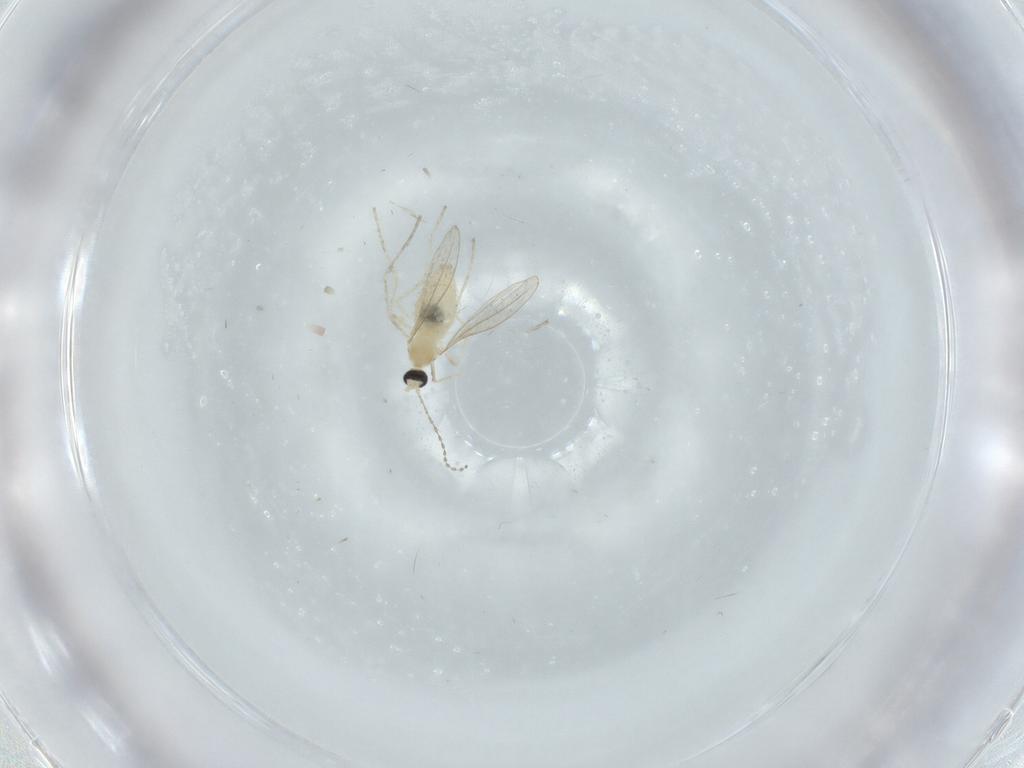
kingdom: Animalia
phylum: Arthropoda
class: Insecta
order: Diptera
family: Cecidomyiidae
